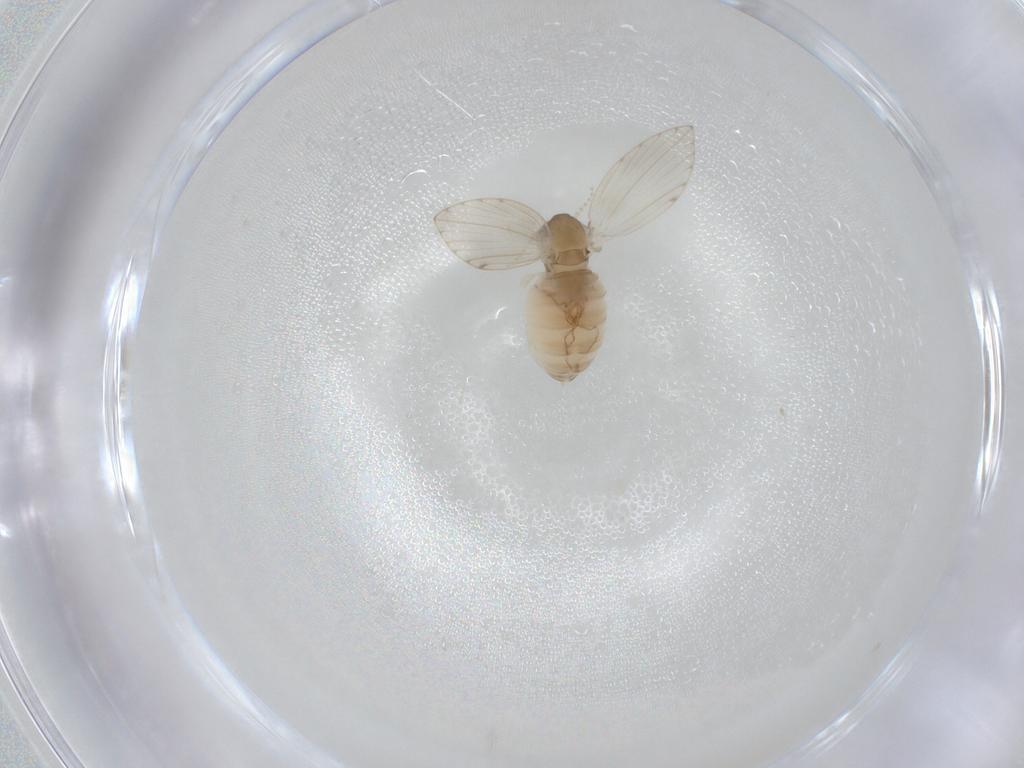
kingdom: Animalia
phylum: Arthropoda
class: Insecta
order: Diptera
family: Psychodidae
